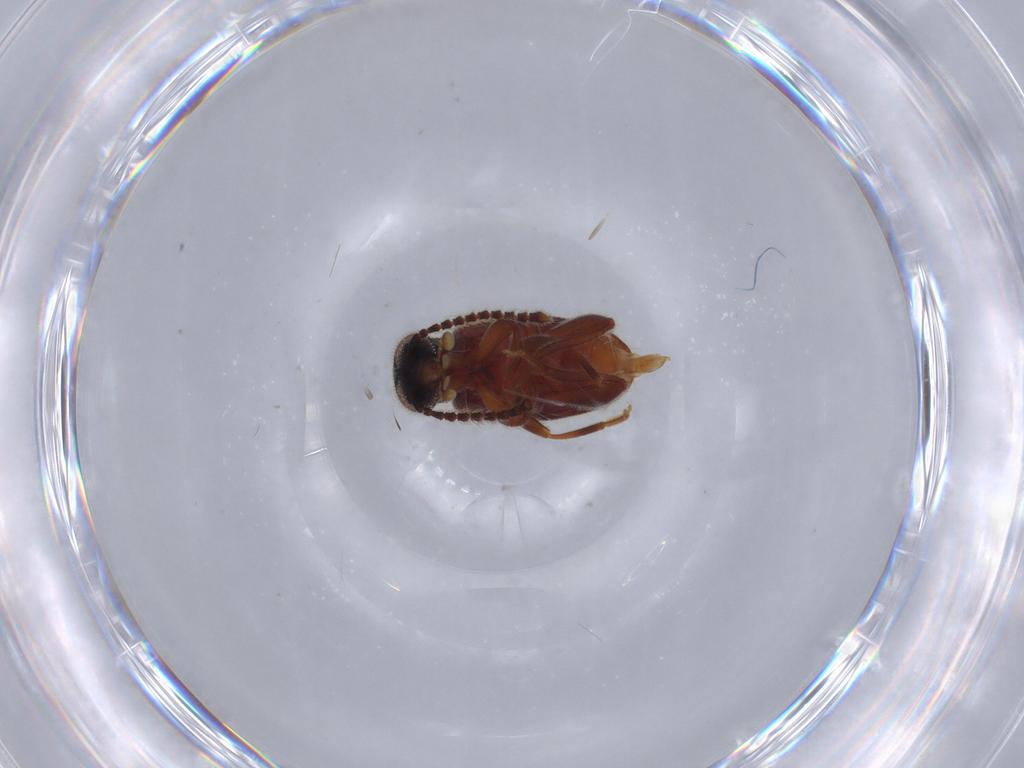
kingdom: Animalia
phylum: Arthropoda
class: Insecta
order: Coleoptera
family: Aderidae
